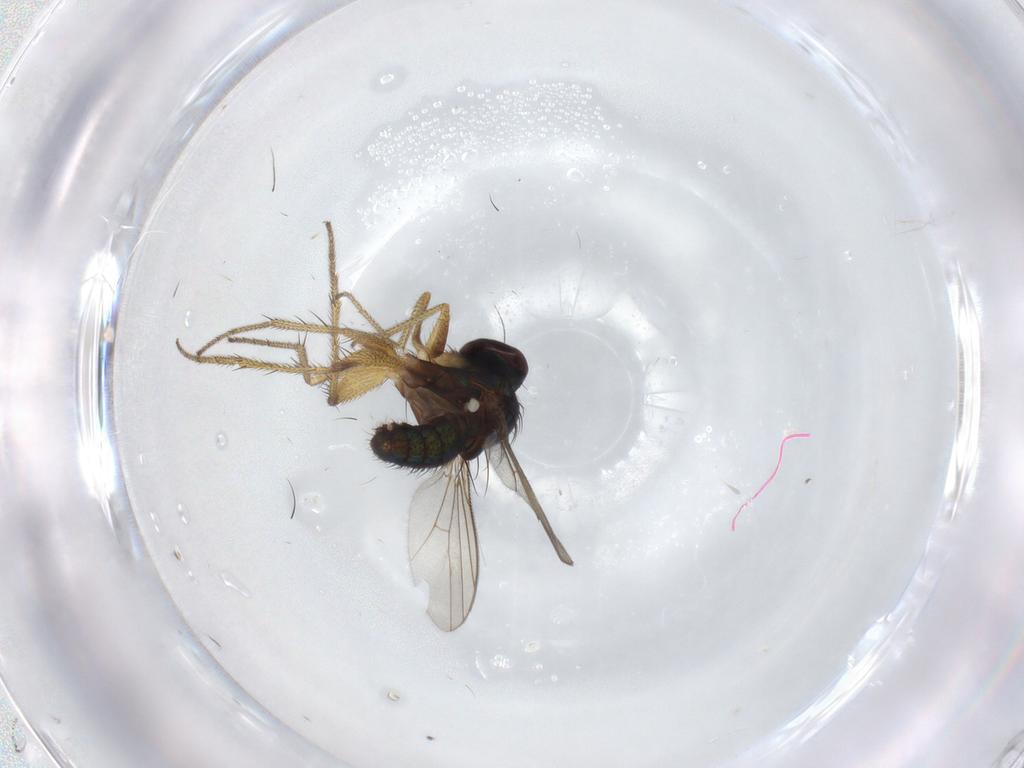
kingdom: Animalia
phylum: Arthropoda
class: Insecta
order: Diptera
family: Dolichopodidae
